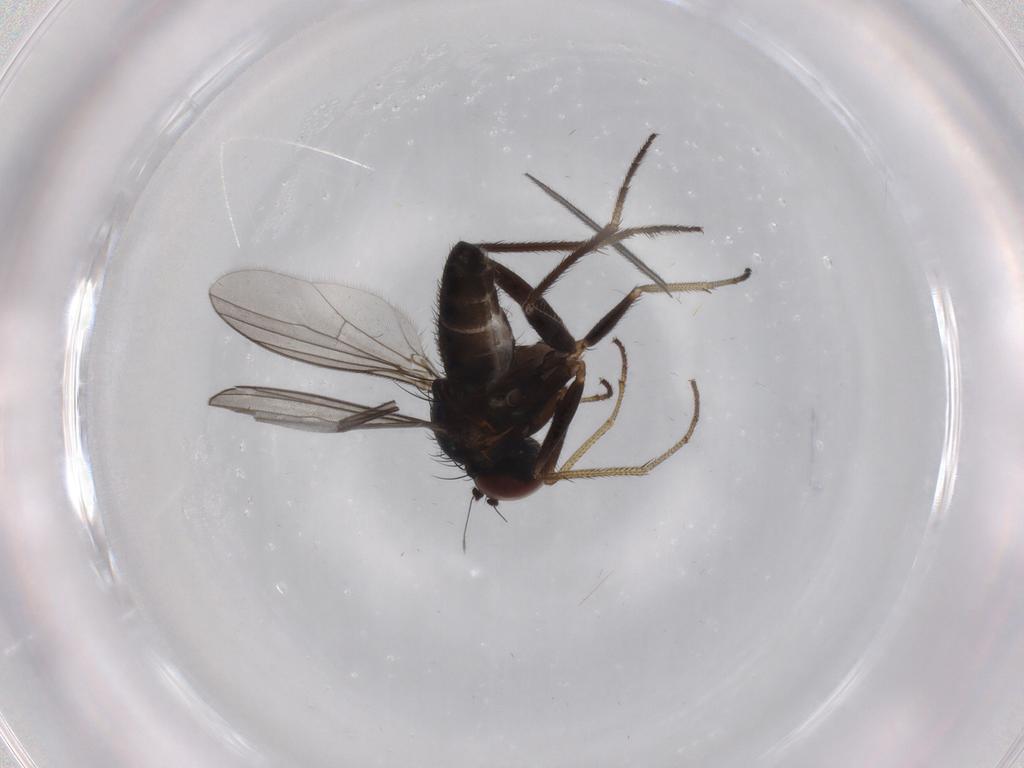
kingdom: Animalia
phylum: Arthropoda
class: Insecta
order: Diptera
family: Sciaridae
